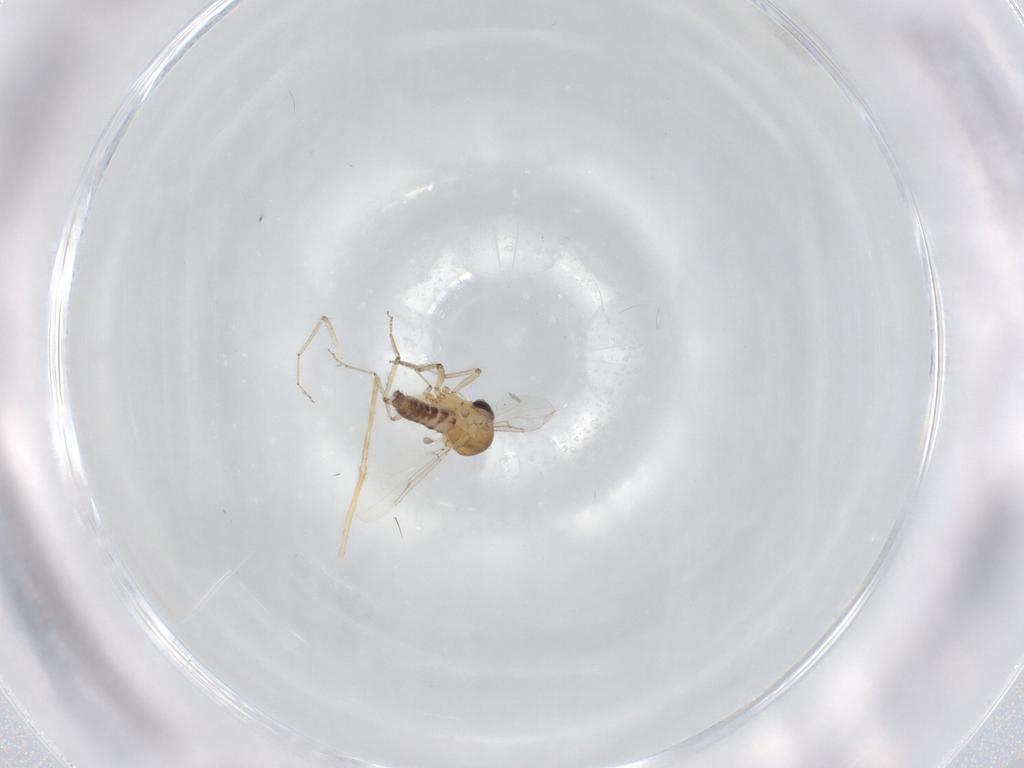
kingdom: Animalia
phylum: Arthropoda
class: Insecta
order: Diptera
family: Ceratopogonidae
